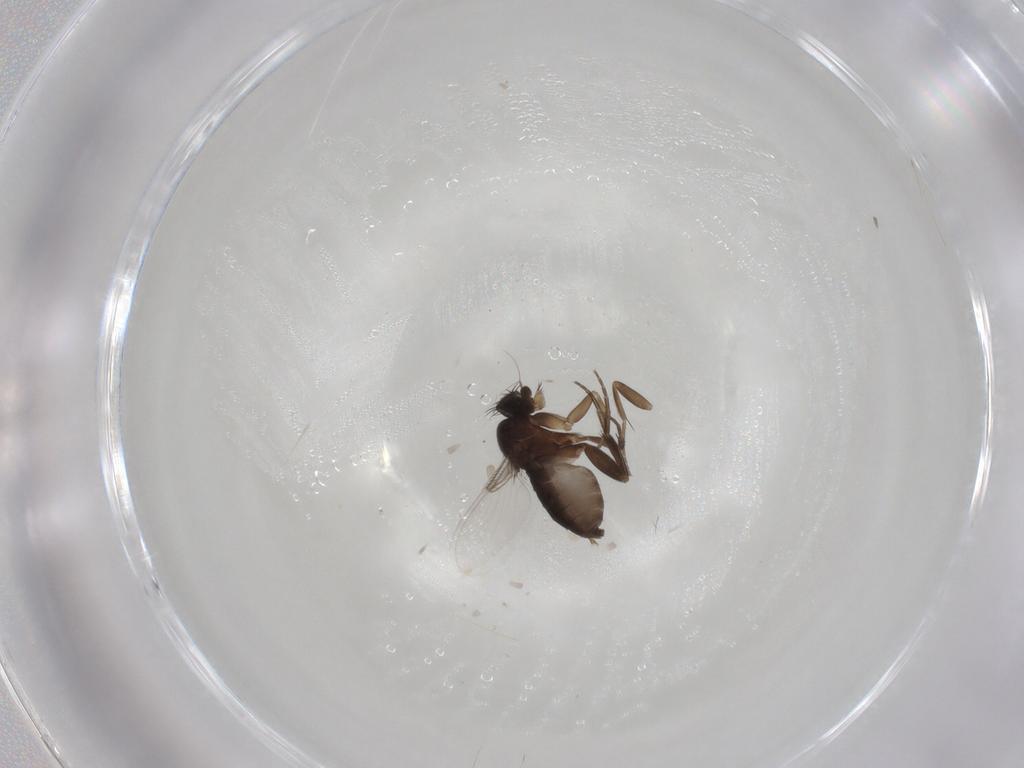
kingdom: Animalia
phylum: Arthropoda
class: Insecta
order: Diptera
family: Phoridae
